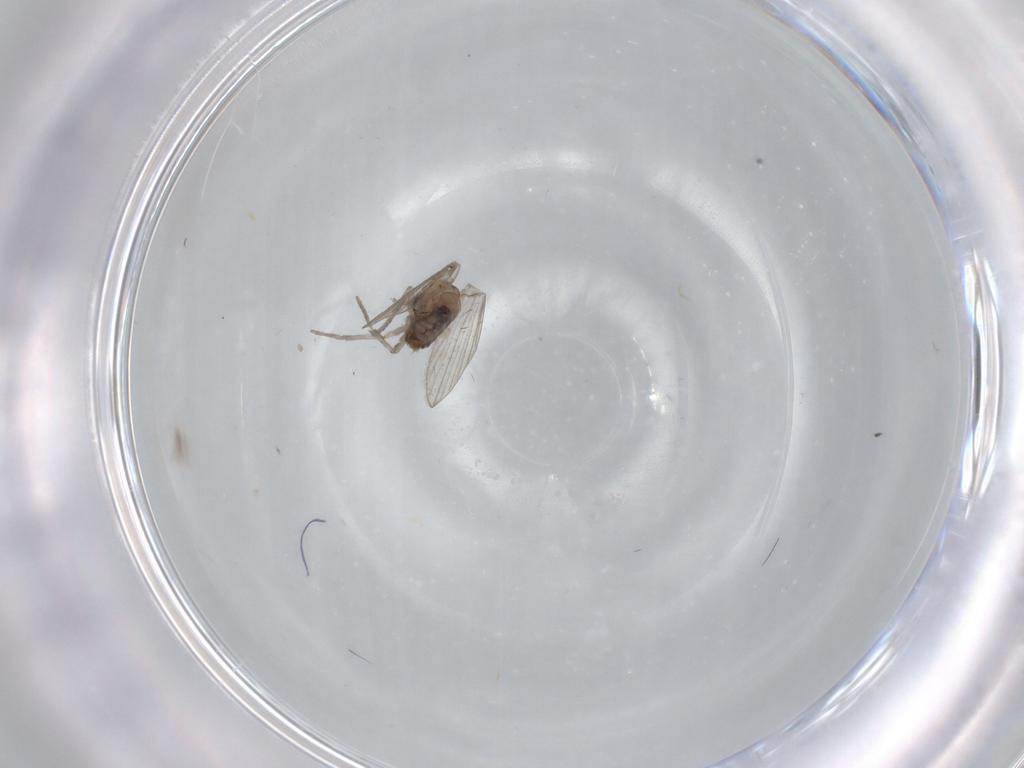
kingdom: Animalia
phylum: Arthropoda
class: Insecta
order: Diptera
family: Psychodidae
